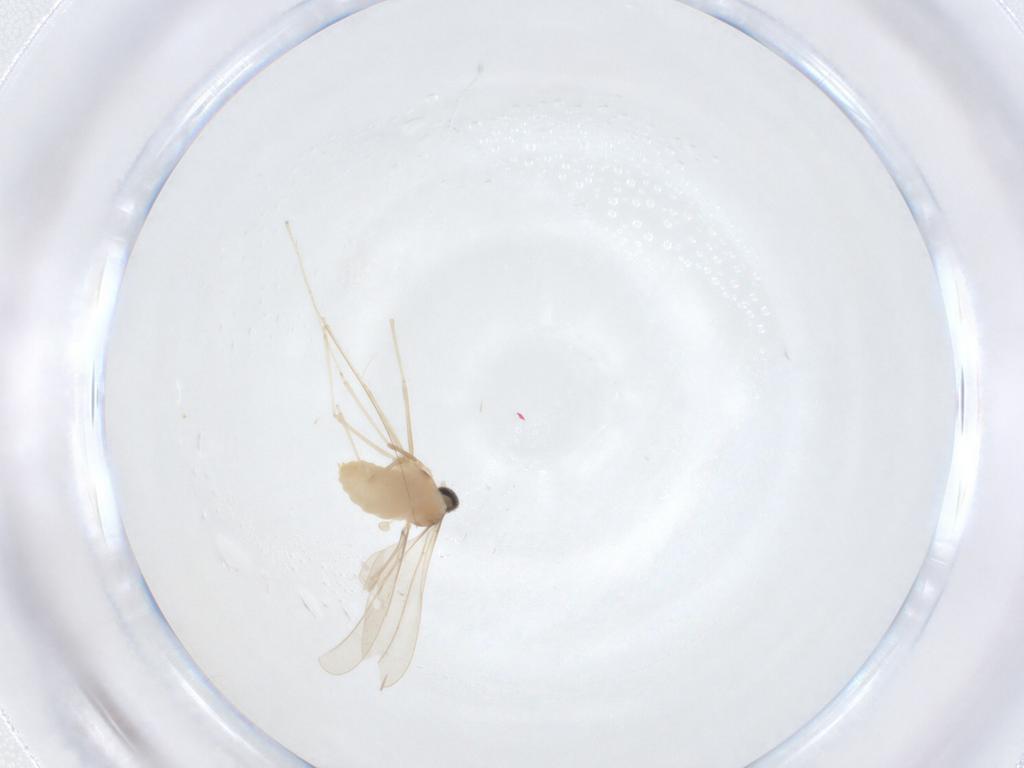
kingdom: Animalia
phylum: Arthropoda
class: Insecta
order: Diptera
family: Cecidomyiidae
